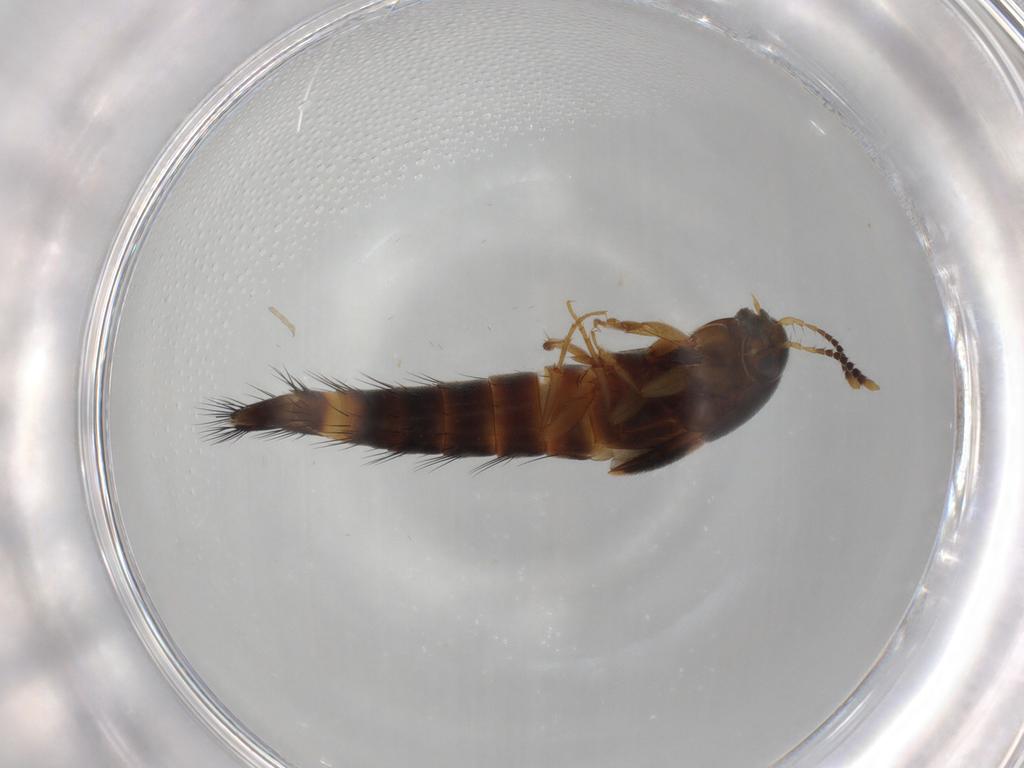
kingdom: Animalia
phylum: Arthropoda
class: Insecta
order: Coleoptera
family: Staphylinidae
